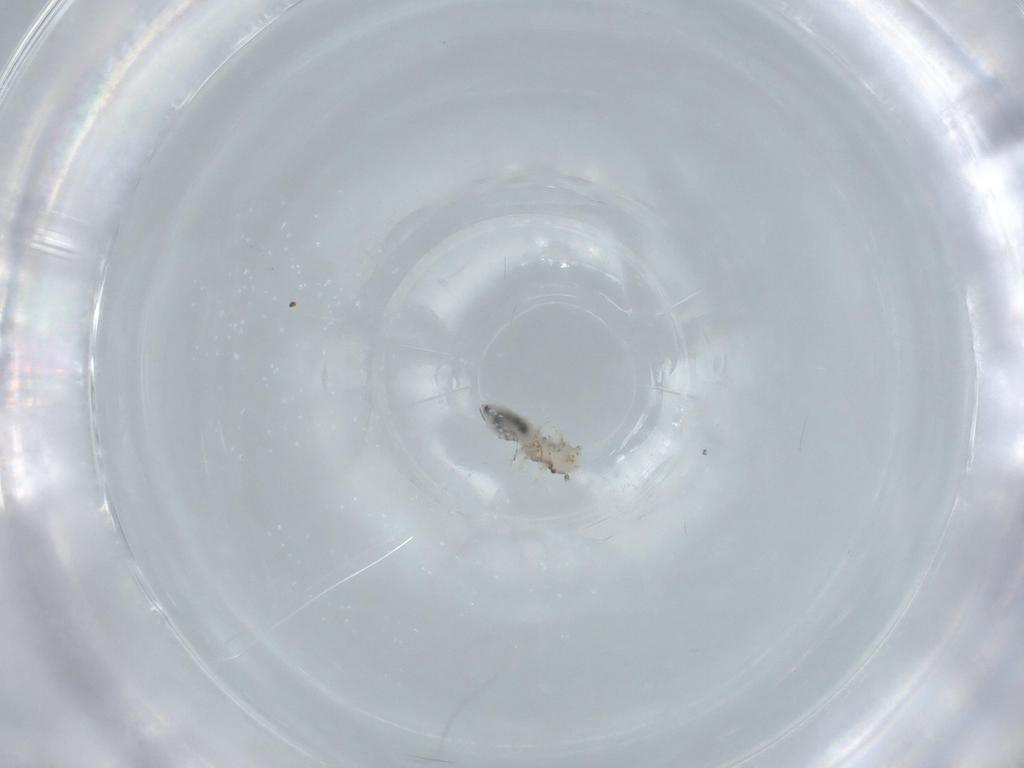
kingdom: Animalia
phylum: Arthropoda
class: Insecta
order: Psocodea
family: Pseudocaeciliidae
